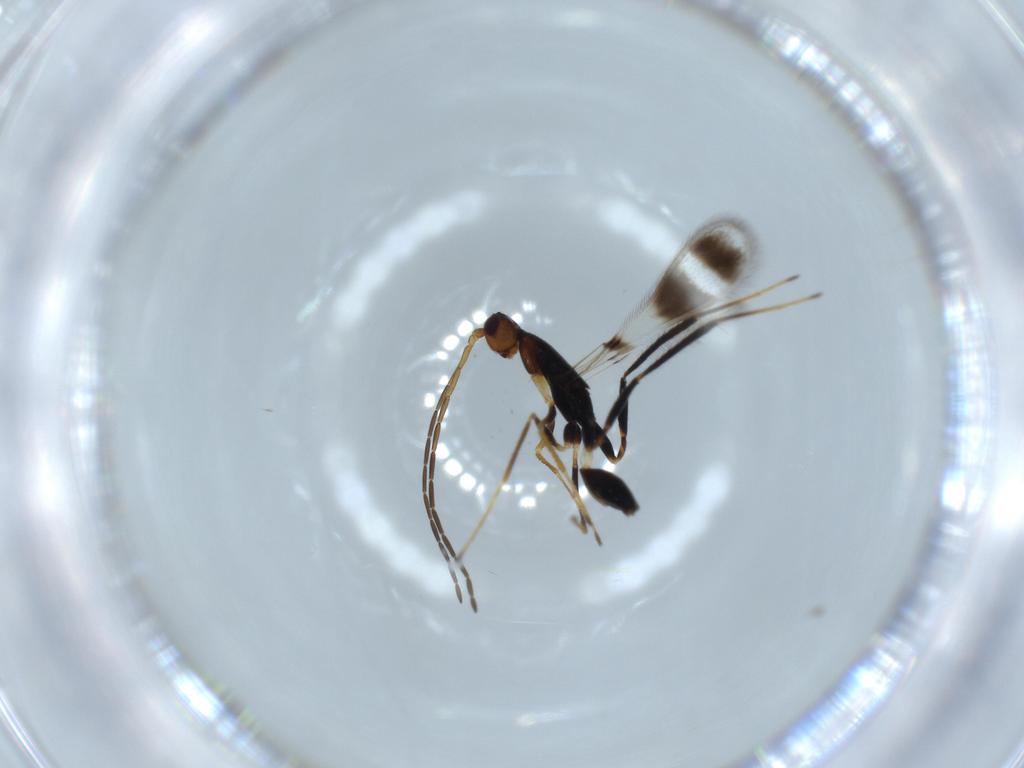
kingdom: Animalia
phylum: Arthropoda
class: Insecta
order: Hymenoptera
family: Mymaridae
